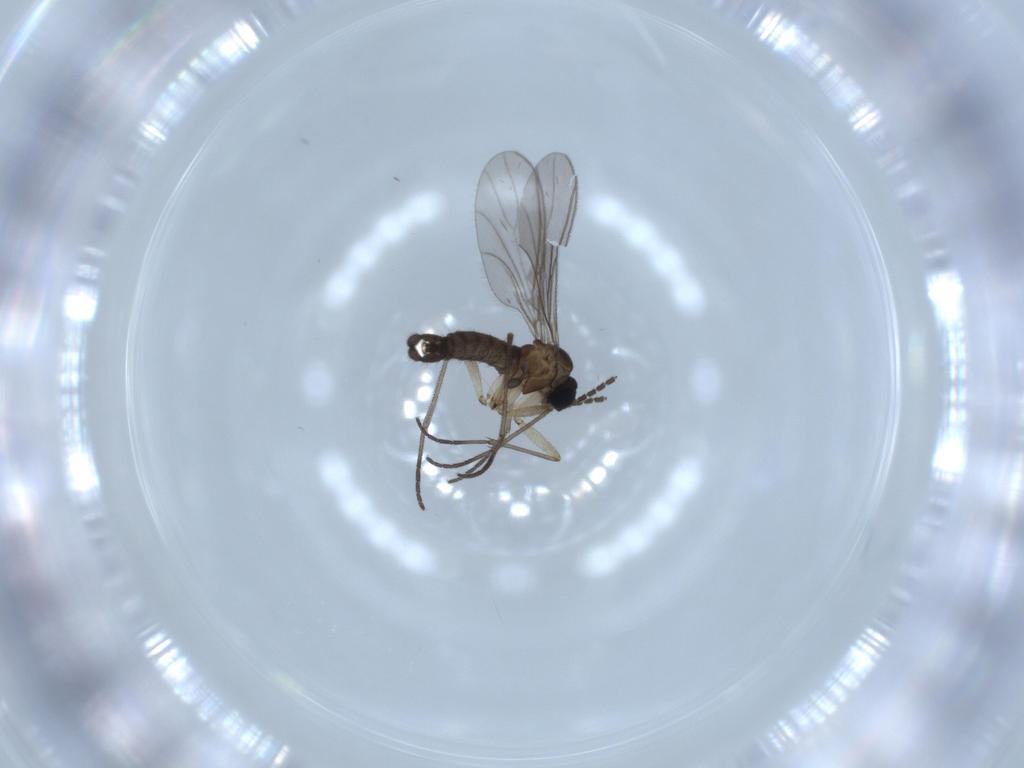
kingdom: Animalia
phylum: Arthropoda
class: Insecta
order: Diptera
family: Sciaridae
